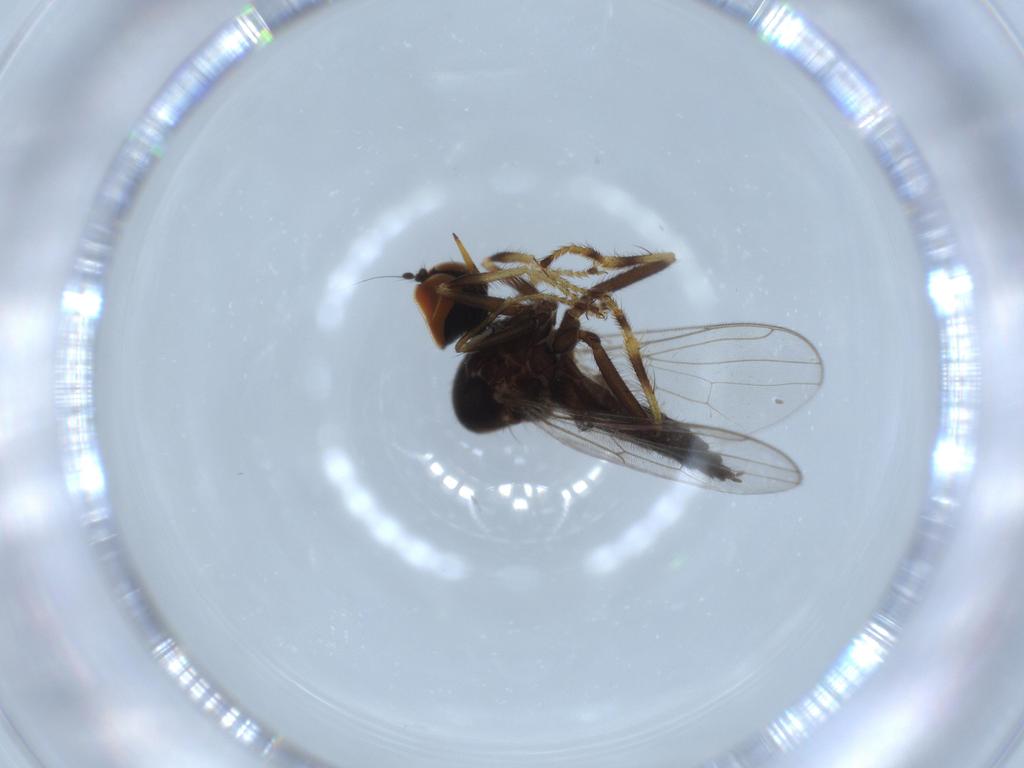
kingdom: Animalia
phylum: Arthropoda
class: Insecta
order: Diptera
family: Hybotidae
